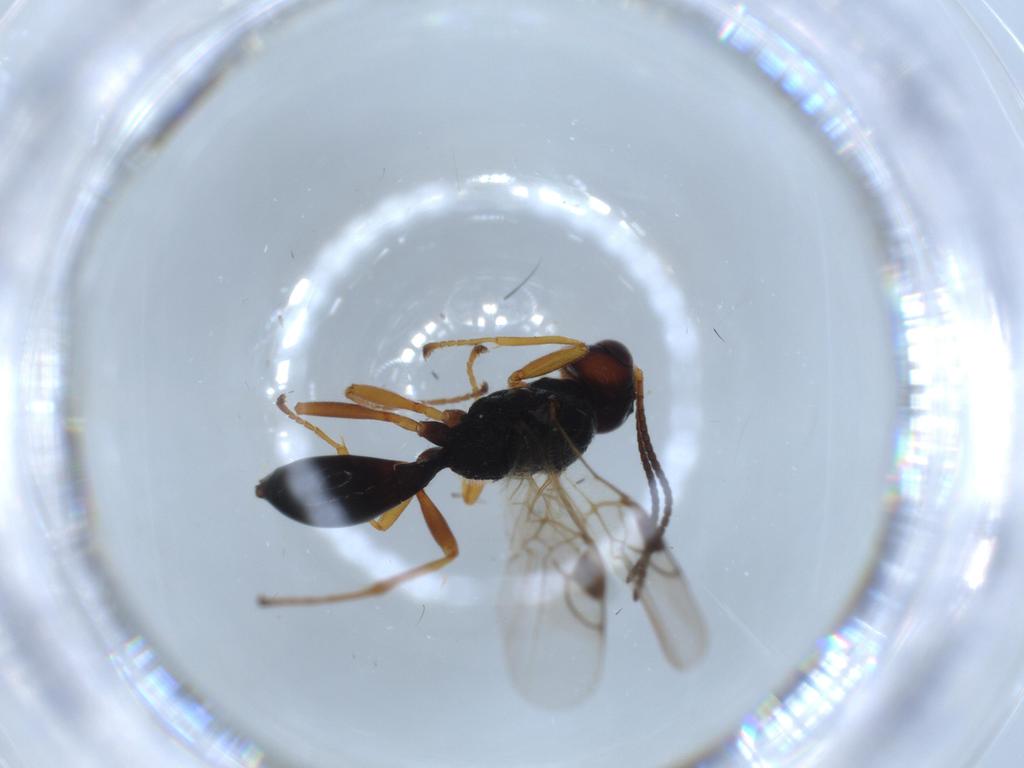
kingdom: Animalia
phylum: Arthropoda
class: Insecta
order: Hymenoptera
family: Braconidae
